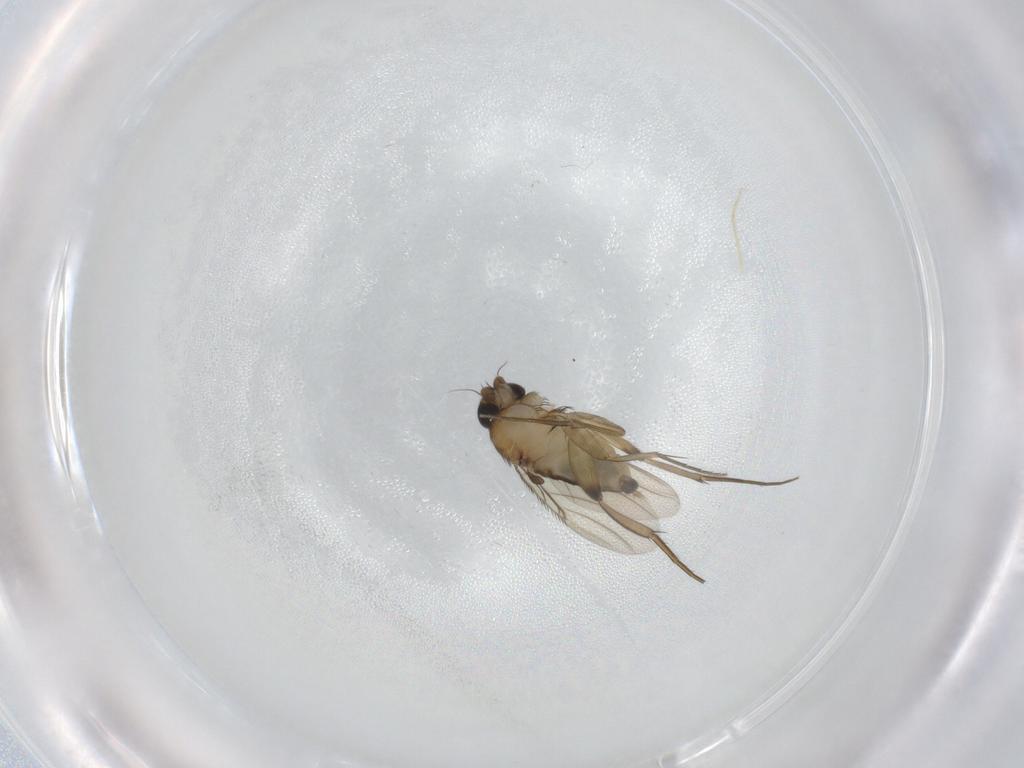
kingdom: Animalia
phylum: Arthropoda
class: Insecta
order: Diptera
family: Phoridae
